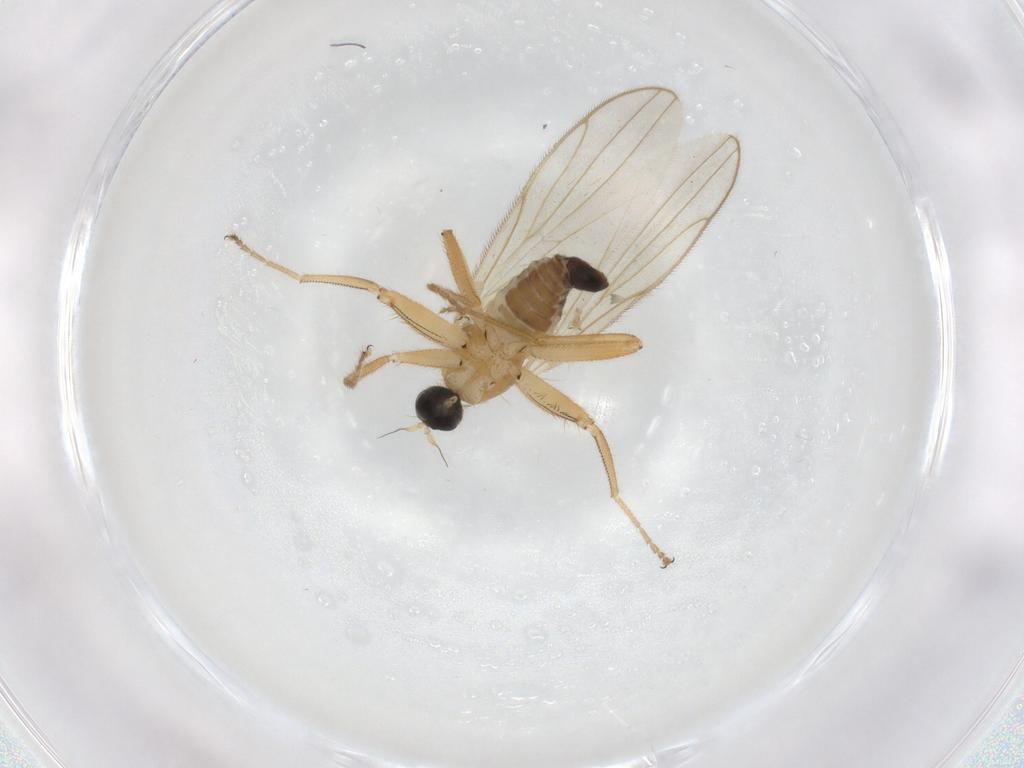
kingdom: Animalia
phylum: Arthropoda
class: Insecta
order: Diptera
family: Hybotidae
